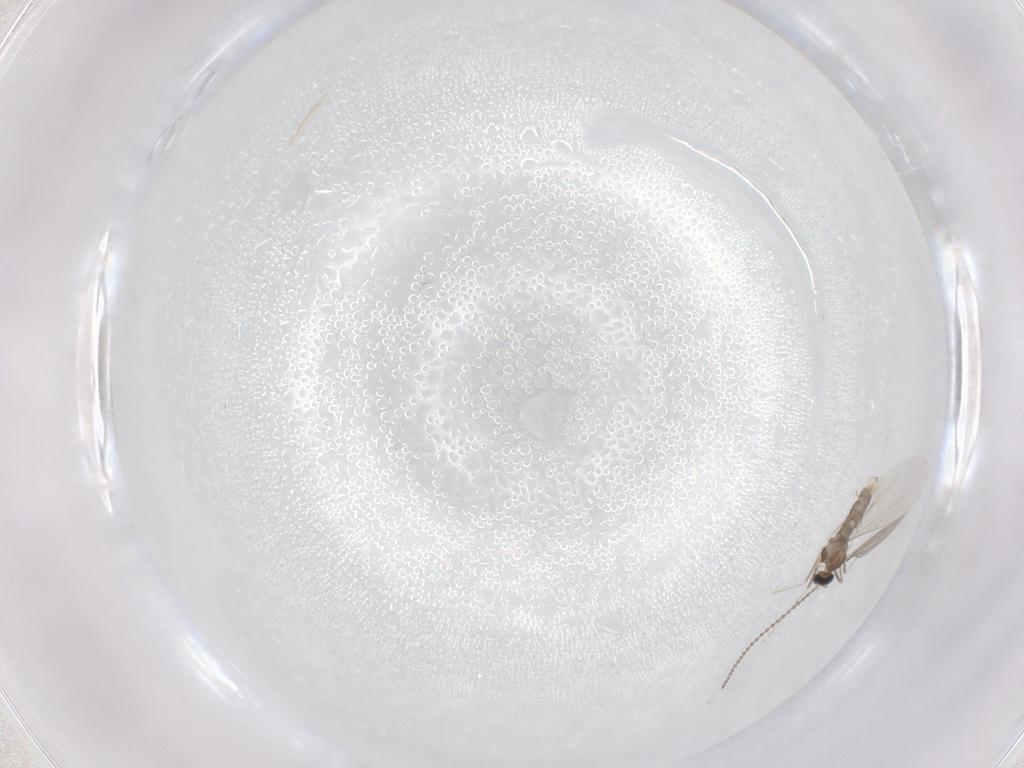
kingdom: Animalia
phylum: Arthropoda
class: Insecta
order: Diptera
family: Cecidomyiidae
